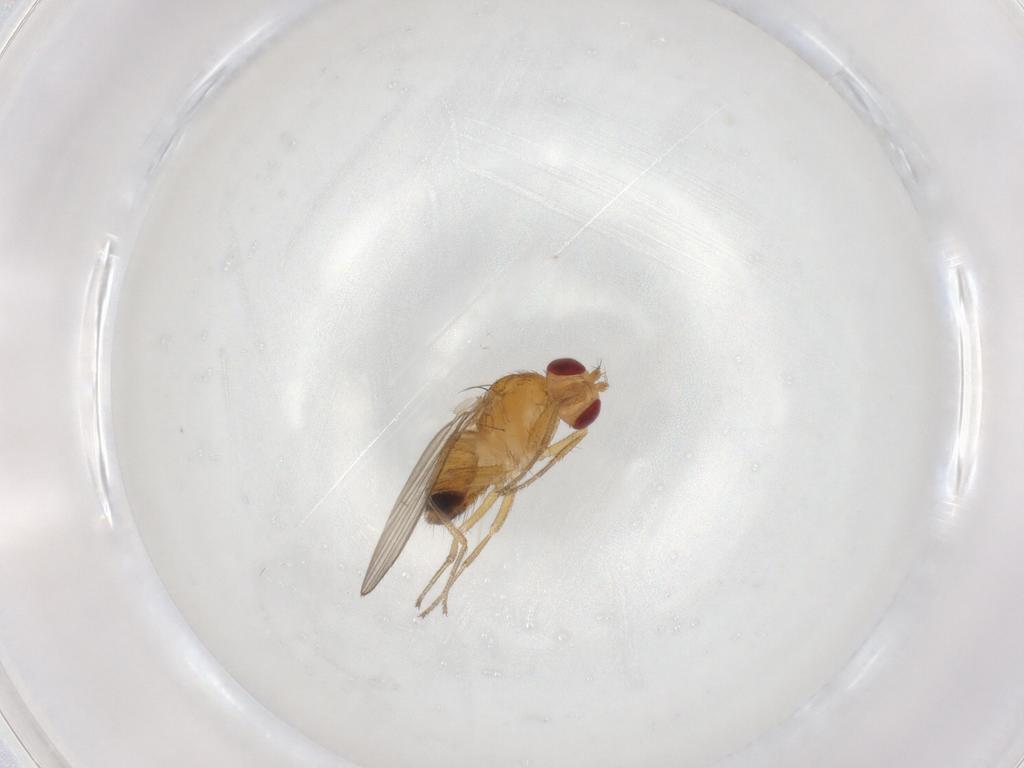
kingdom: Animalia
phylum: Arthropoda
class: Insecta
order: Diptera
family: Drosophilidae
